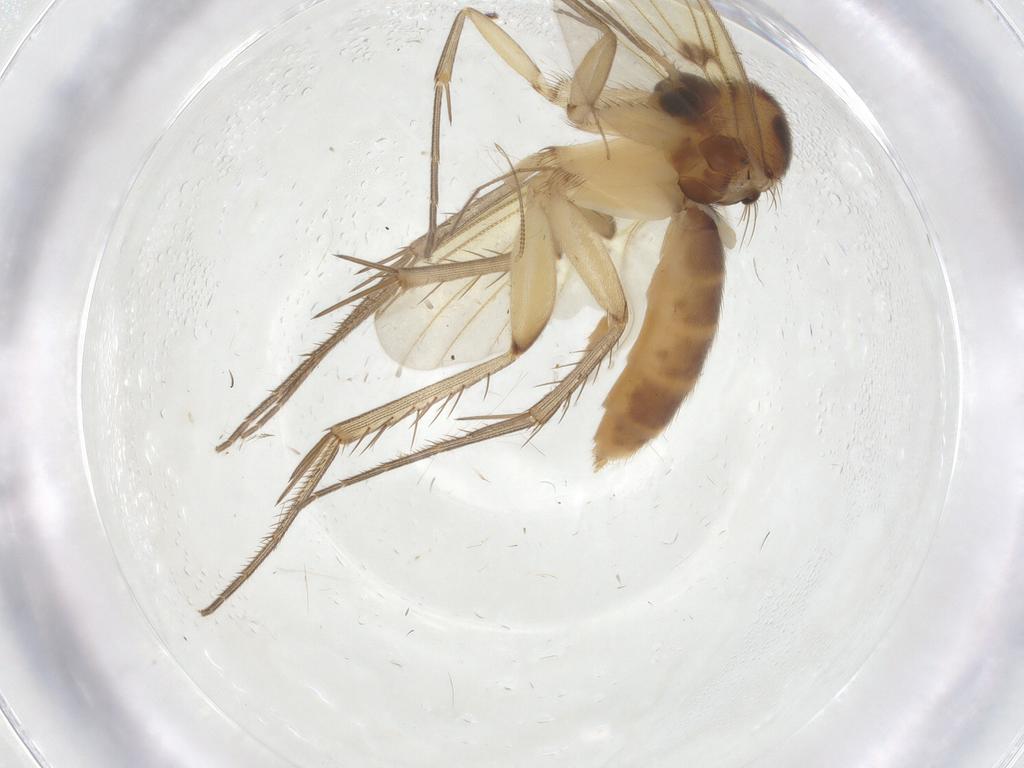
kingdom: Animalia
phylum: Arthropoda
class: Insecta
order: Diptera
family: Mycetophilidae
